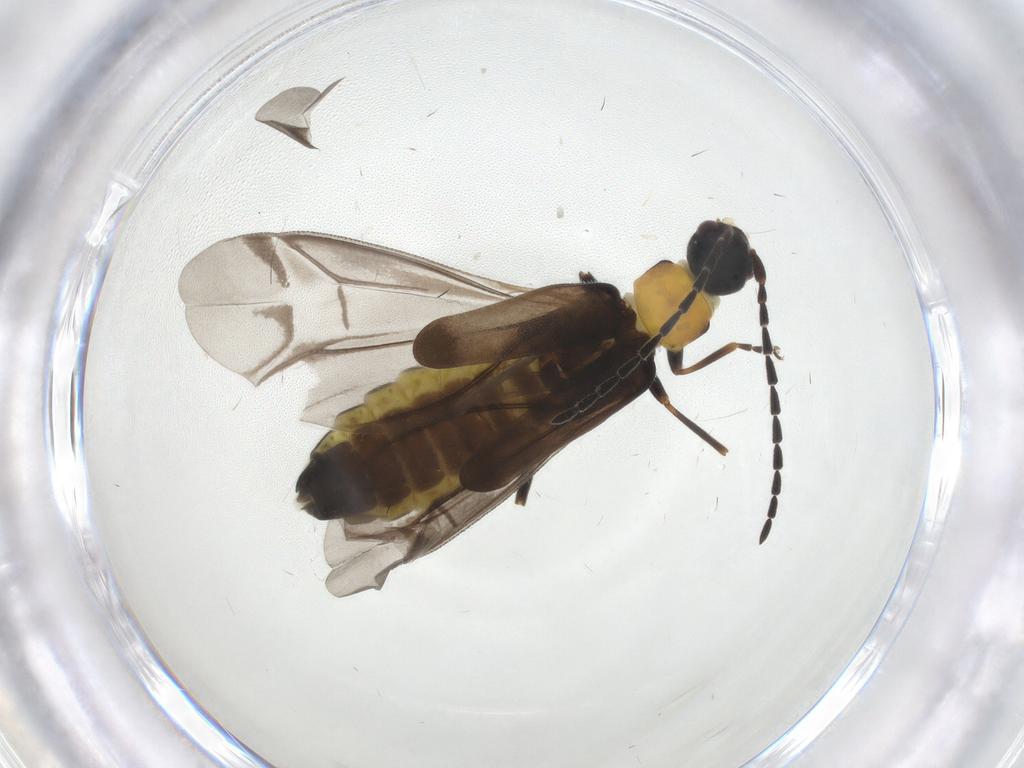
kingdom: Animalia
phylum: Arthropoda
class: Insecta
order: Coleoptera
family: Cantharidae
